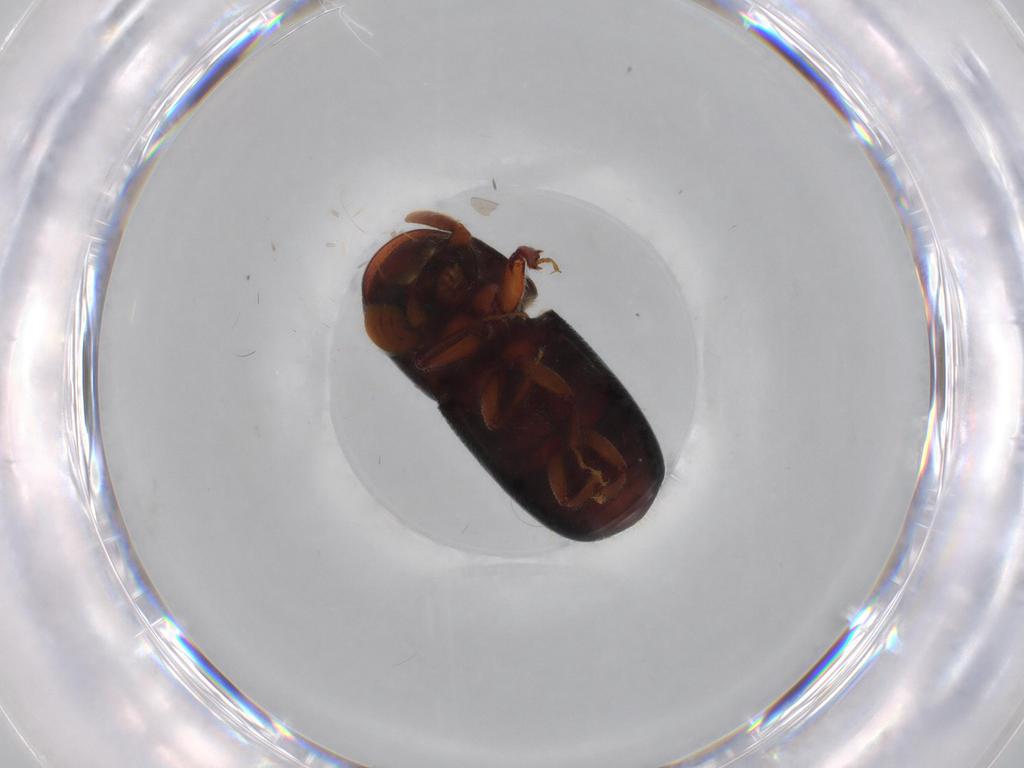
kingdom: Animalia
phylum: Arthropoda
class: Insecta
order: Coleoptera
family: Curculionidae
